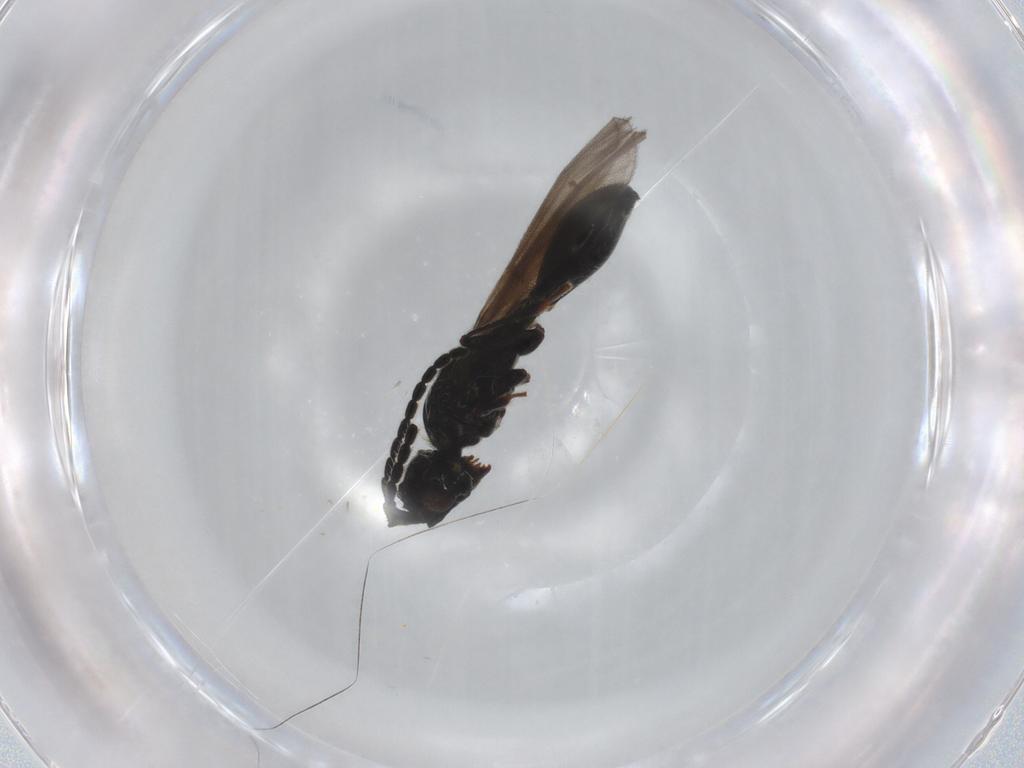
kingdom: Animalia
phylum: Arthropoda
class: Insecta
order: Hymenoptera
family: Diapriidae
